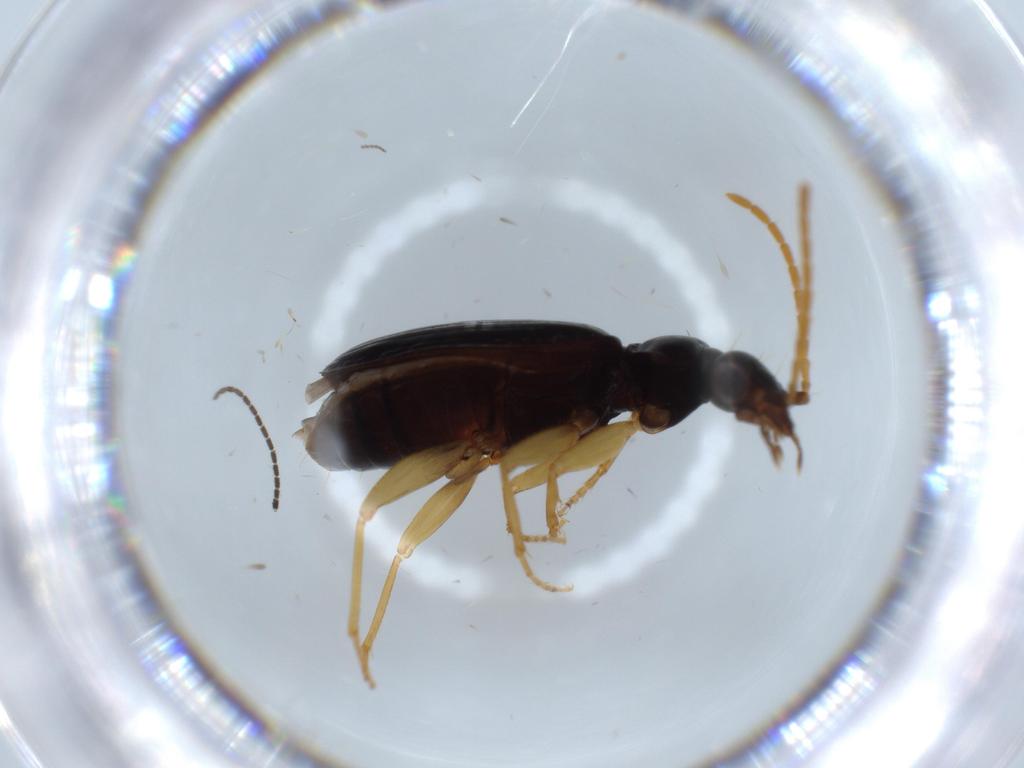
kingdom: Animalia
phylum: Arthropoda
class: Insecta
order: Coleoptera
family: Carabidae
